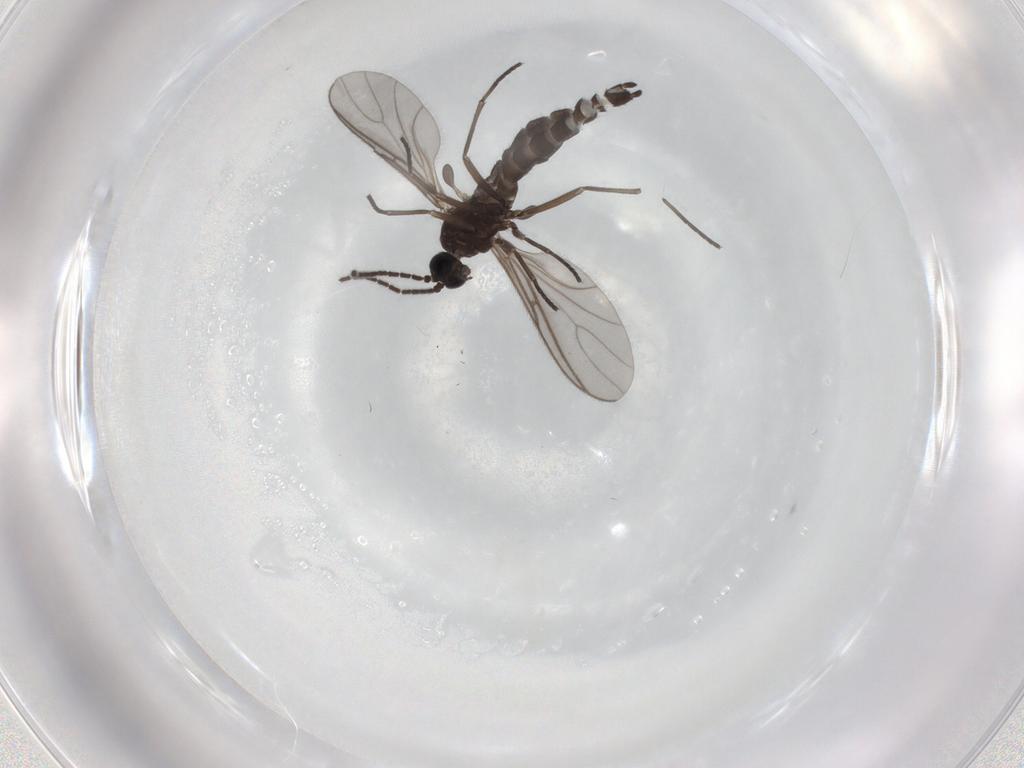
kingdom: Animalia
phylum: Arthropoda
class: Insecta
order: Diptera
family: Sciaridae
